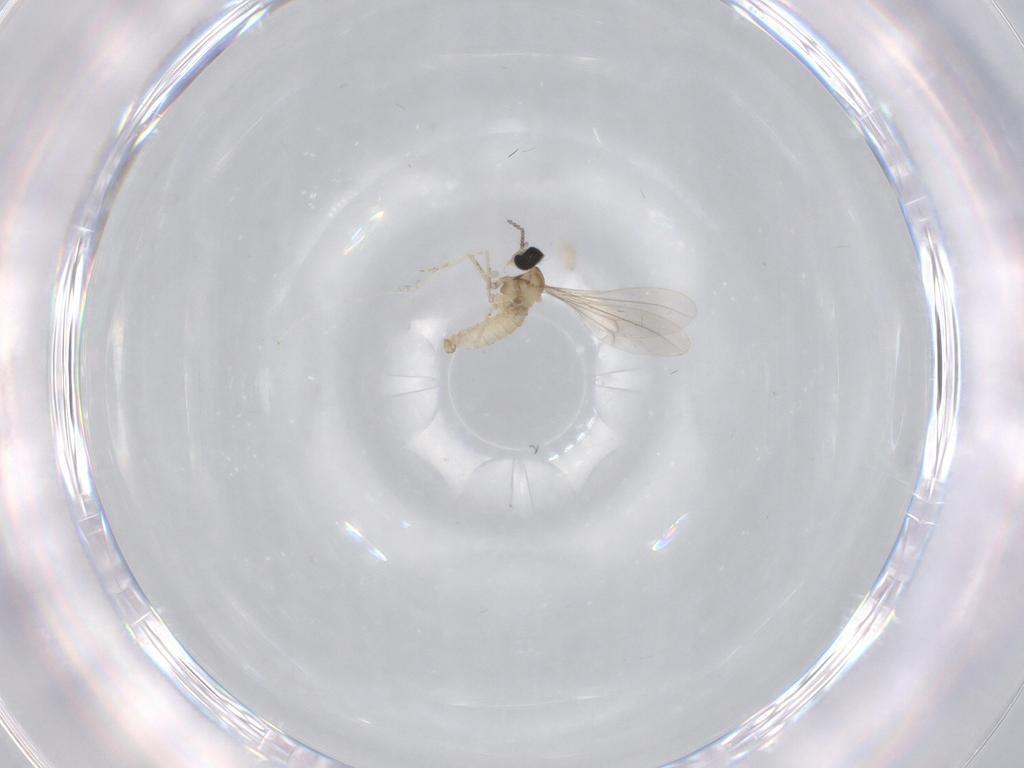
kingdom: Animalia
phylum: Arthropoda
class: Insecta
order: Diptera
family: Cecidomyiidae
